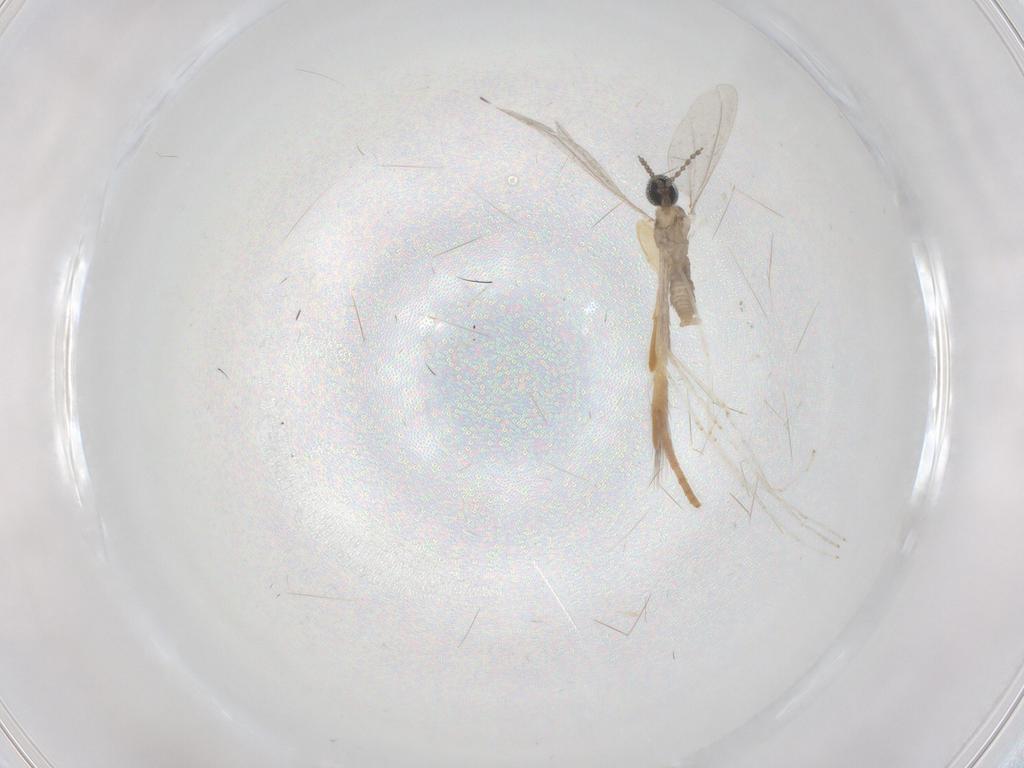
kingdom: Animalia
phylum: Arthropoda
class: Insecta
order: Diptera
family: Cecidomyiidae
